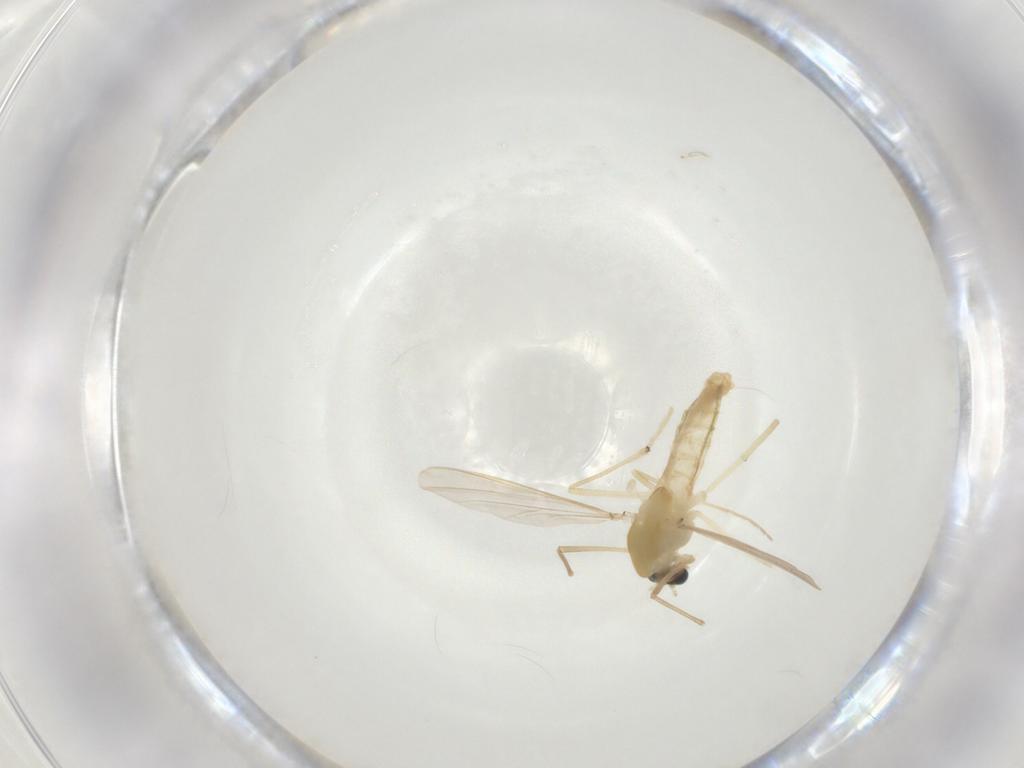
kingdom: Animalia
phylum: Arthropoda
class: Insecta
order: Diptera
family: Chironomidae
